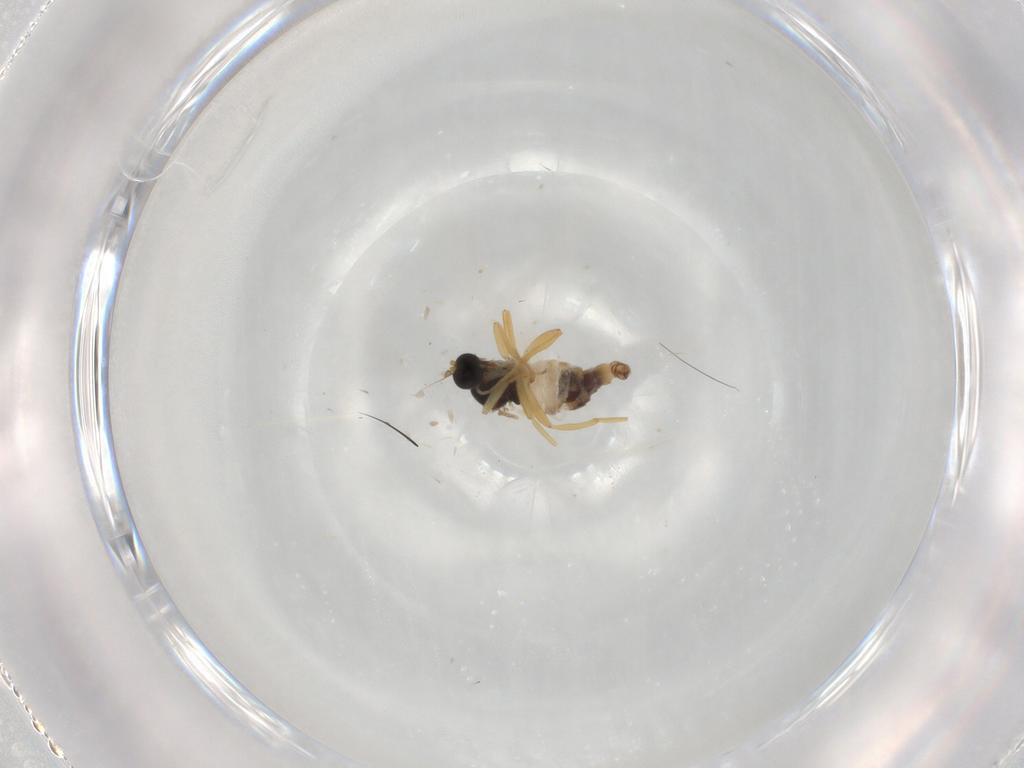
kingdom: Animalia
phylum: Arthropoda
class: Insecta
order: Diptera
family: Hybotidae
